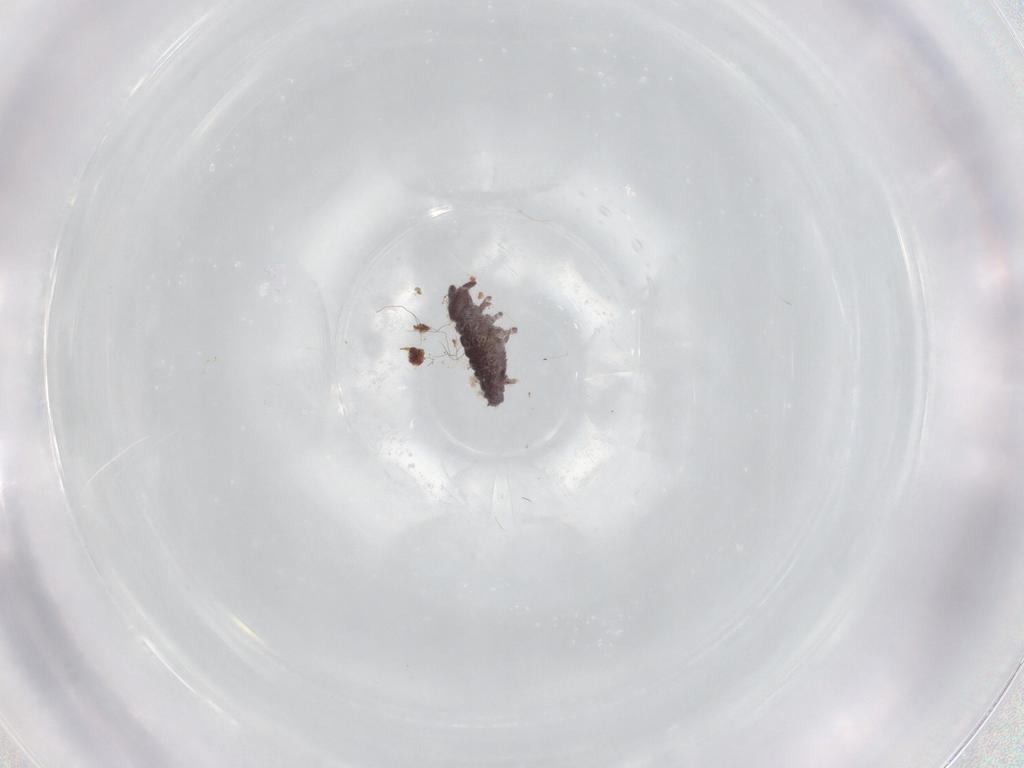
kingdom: Animalia
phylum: Arthropoda
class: Collembola
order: Poduromorpha
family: Hypogastruridae
